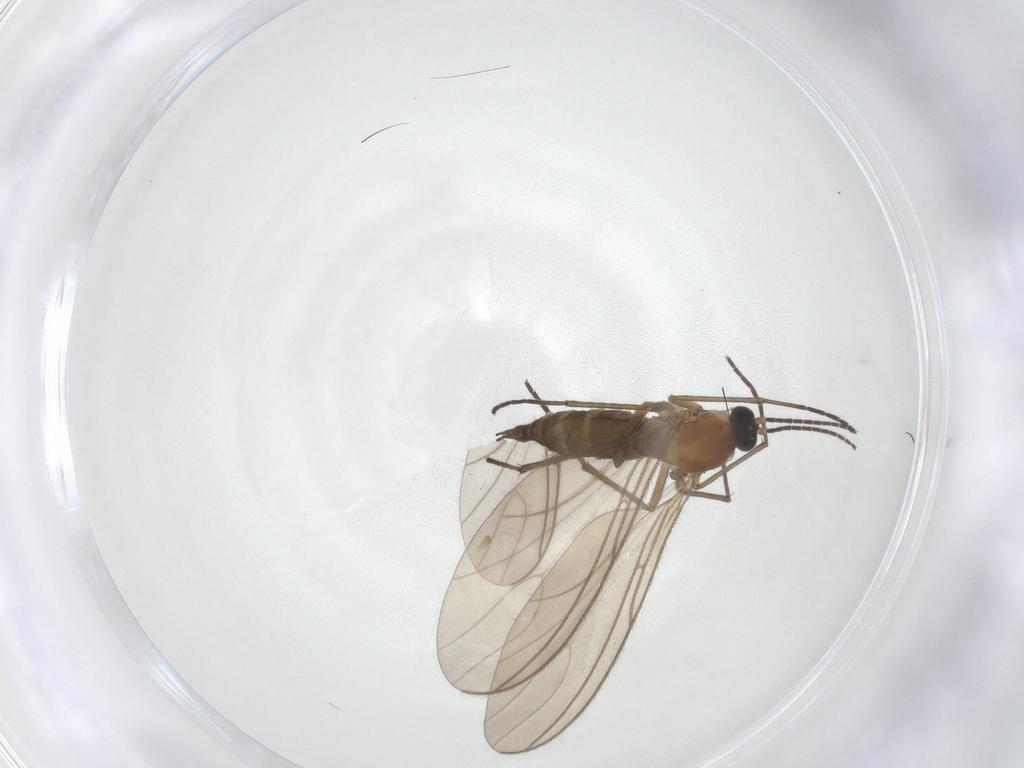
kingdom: Animalia
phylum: Arthropoda
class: Insecta
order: Diptera
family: Sciaridae
